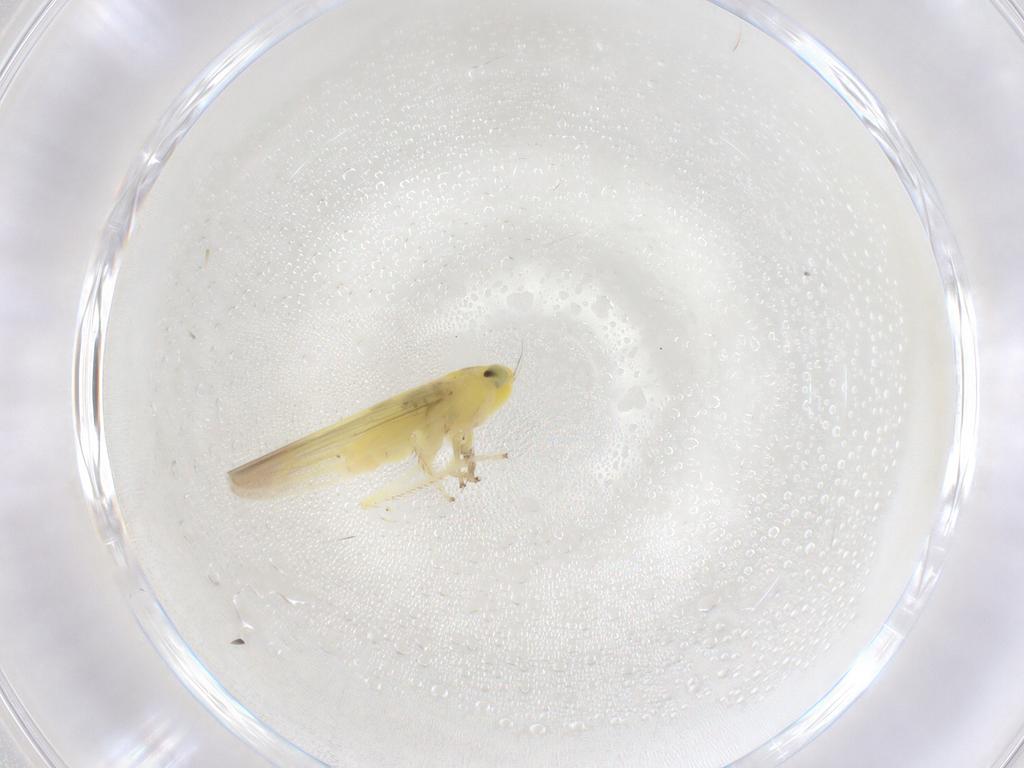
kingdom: Animalia
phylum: Arthropoda
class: Insecta
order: Hemiptera
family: Cicadellidae
